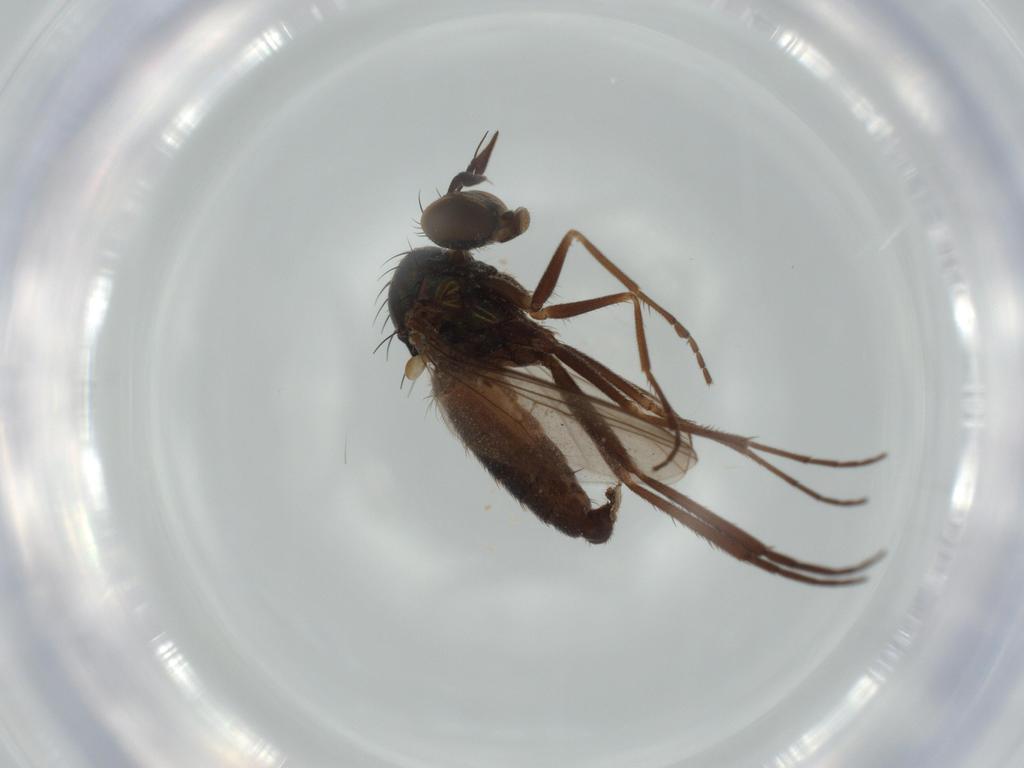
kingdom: Animalia
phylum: Arthropoda
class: Insecta
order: Diptera
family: Dolichopodidae
